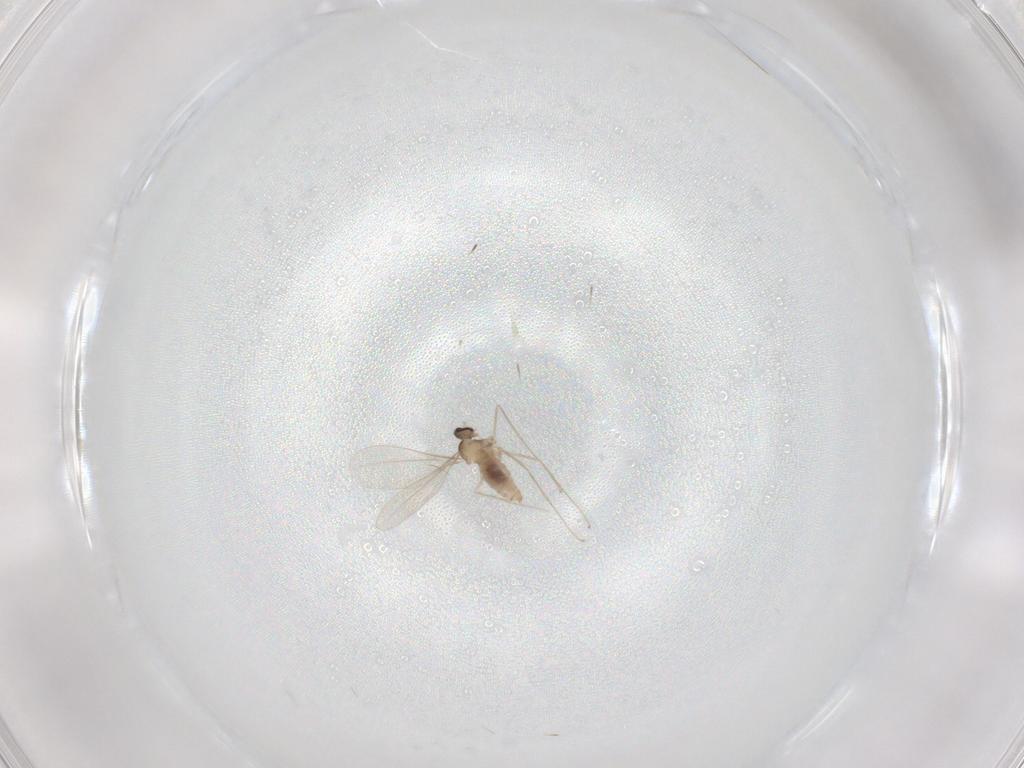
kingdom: Animalia
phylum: Arthropoda
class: Insecta
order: Diptera
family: Cecidomyiidae
